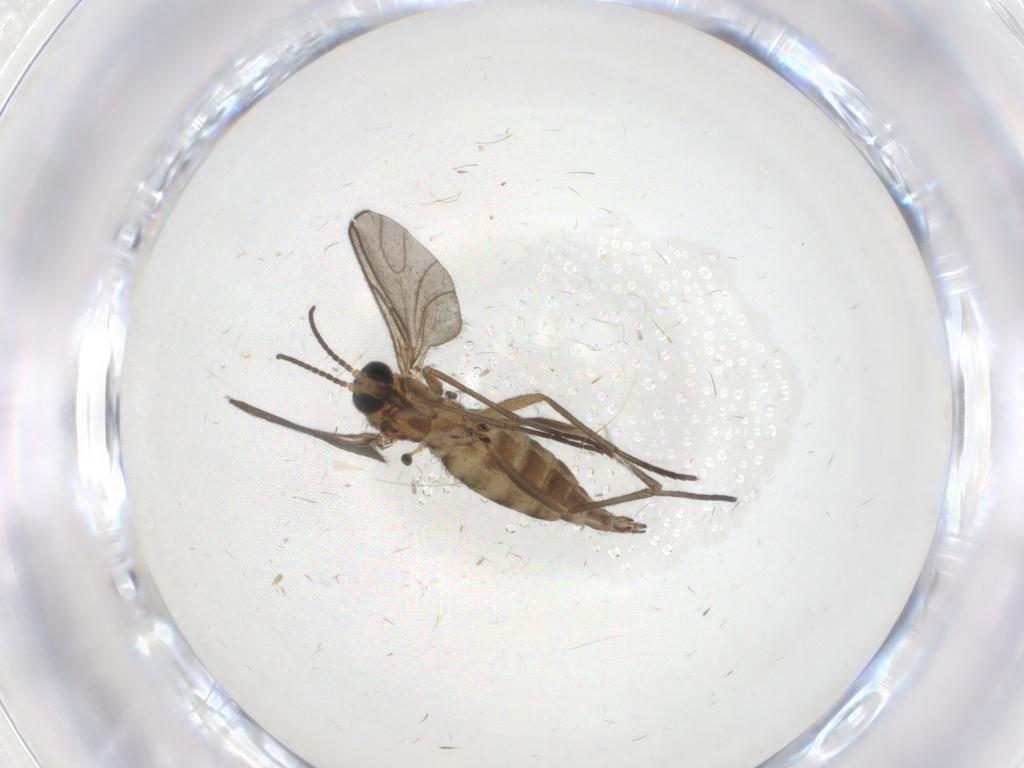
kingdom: Animalia
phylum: Arthropoda
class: Insecta
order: Diptera
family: Sciaridae
